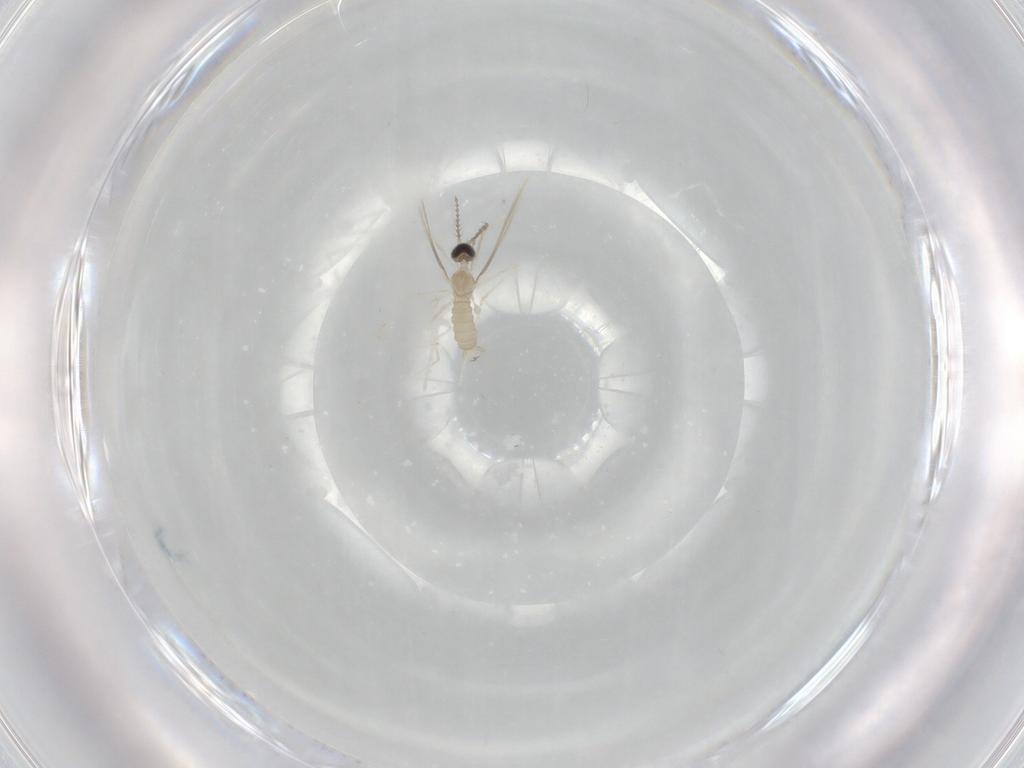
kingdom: Animalia
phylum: Arthropoda
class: Insecta
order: Diptera
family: Cecidomyiidae
